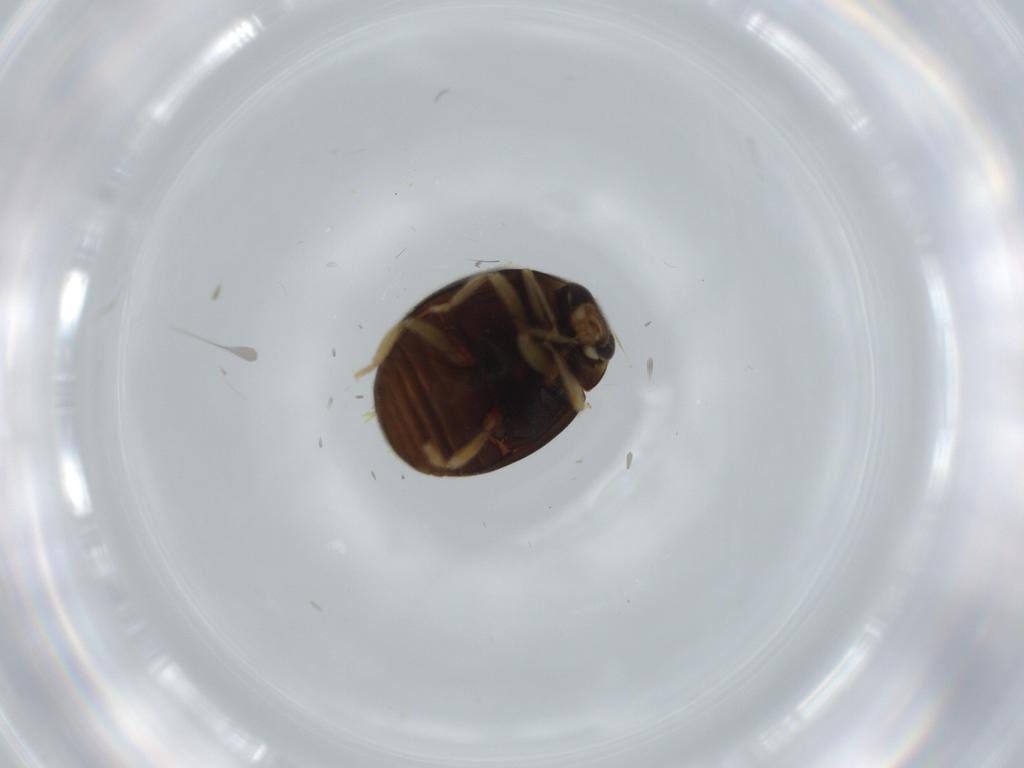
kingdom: Animalia
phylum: Arthropoda
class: Insecta
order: Coleoptera
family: Coccinellidae
